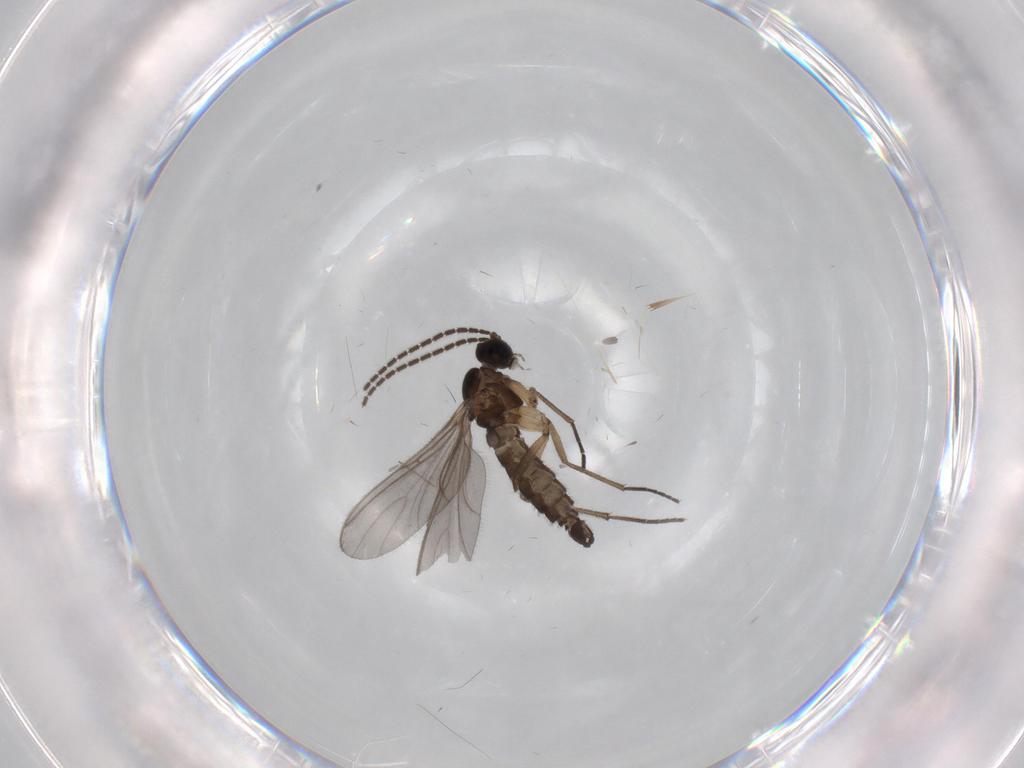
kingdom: Animalia
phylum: Arthropoda
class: Insecta
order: Diptera
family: Sciaridae
